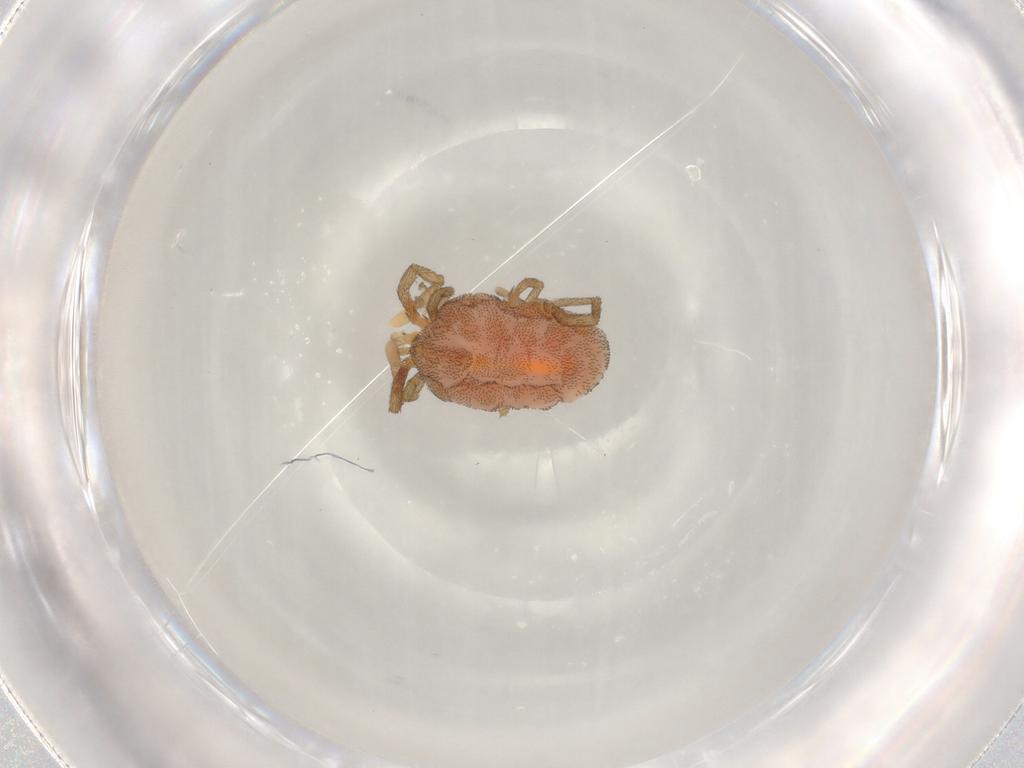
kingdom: Animalia
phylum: Arthropoda
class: Arachnida
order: Trombidiformes
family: Erythraeidae
